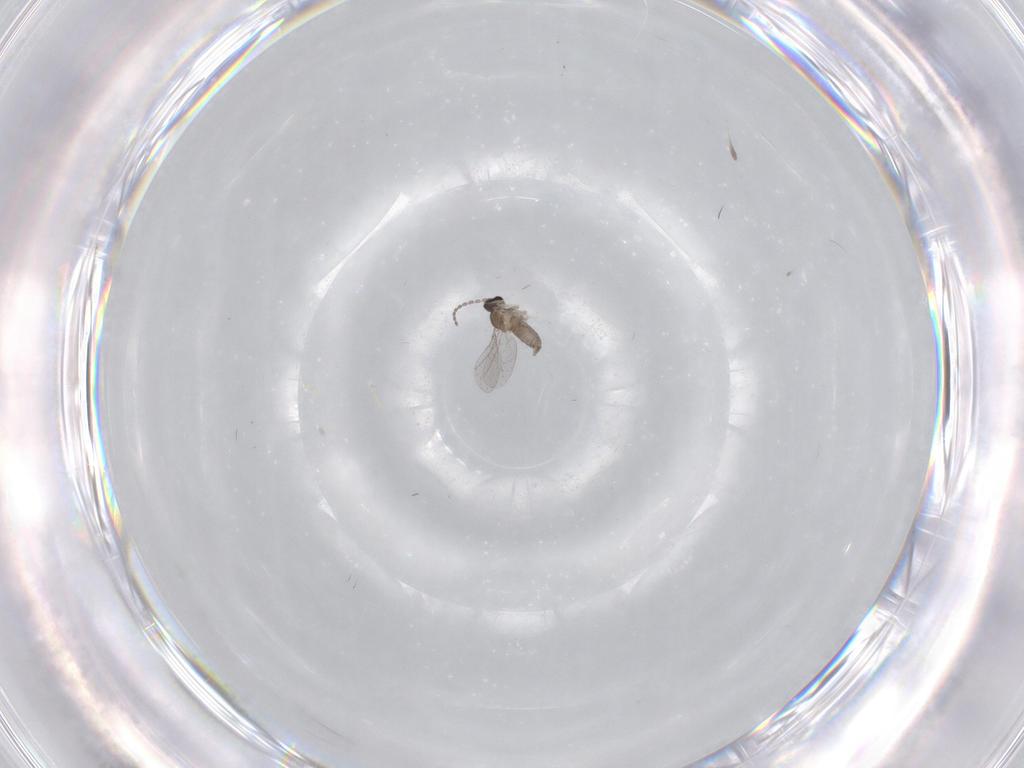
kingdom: Animalia
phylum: Arthropoda
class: Insecta
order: Diptera
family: Cecidomyiidae
